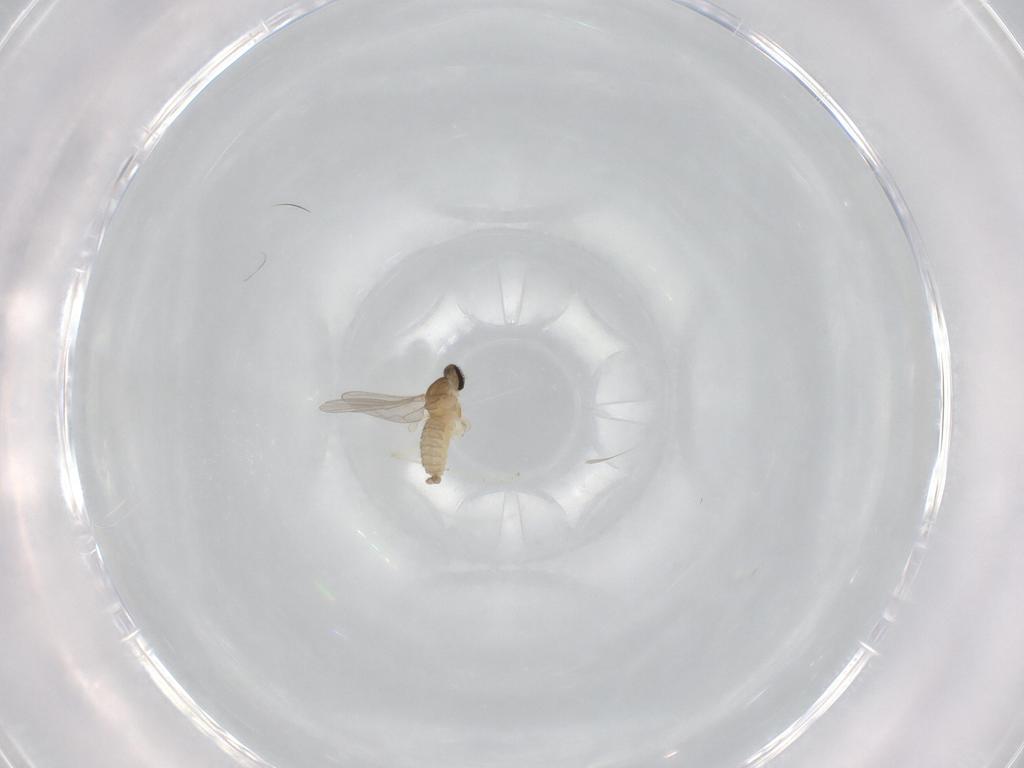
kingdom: Animalia
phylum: Arthropoda
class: Insecta
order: Diptera
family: Cecidomyiidae
